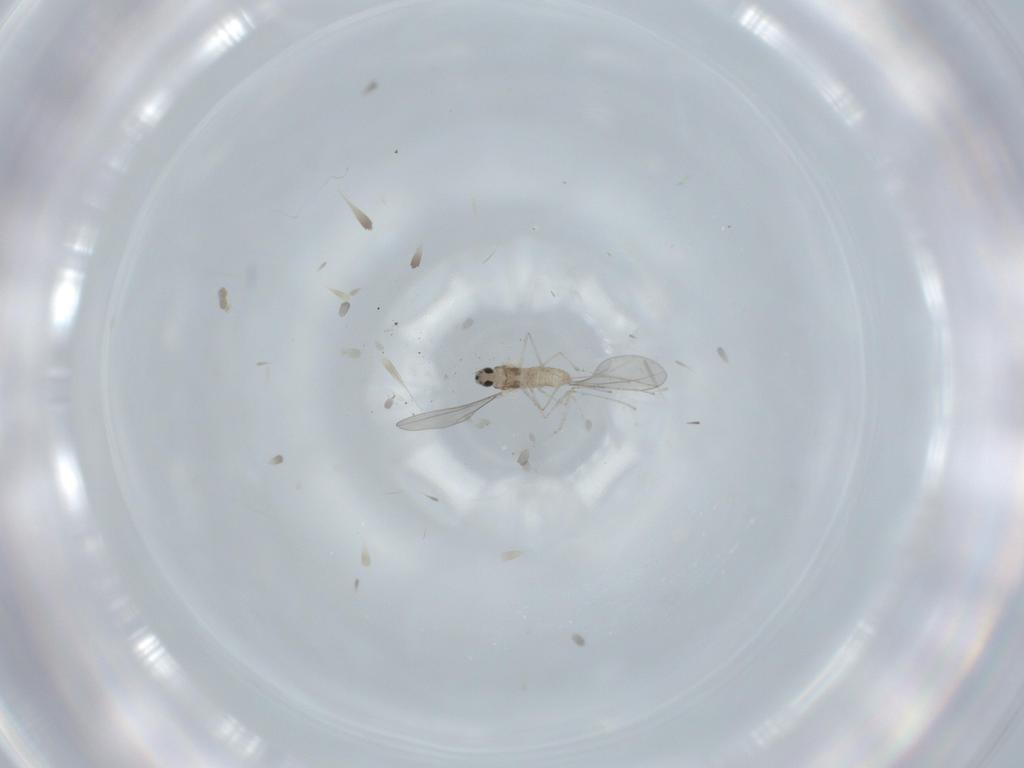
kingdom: Animalia
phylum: Arthropoda
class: Insecta
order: Diptera
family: Cecidomyiidae
